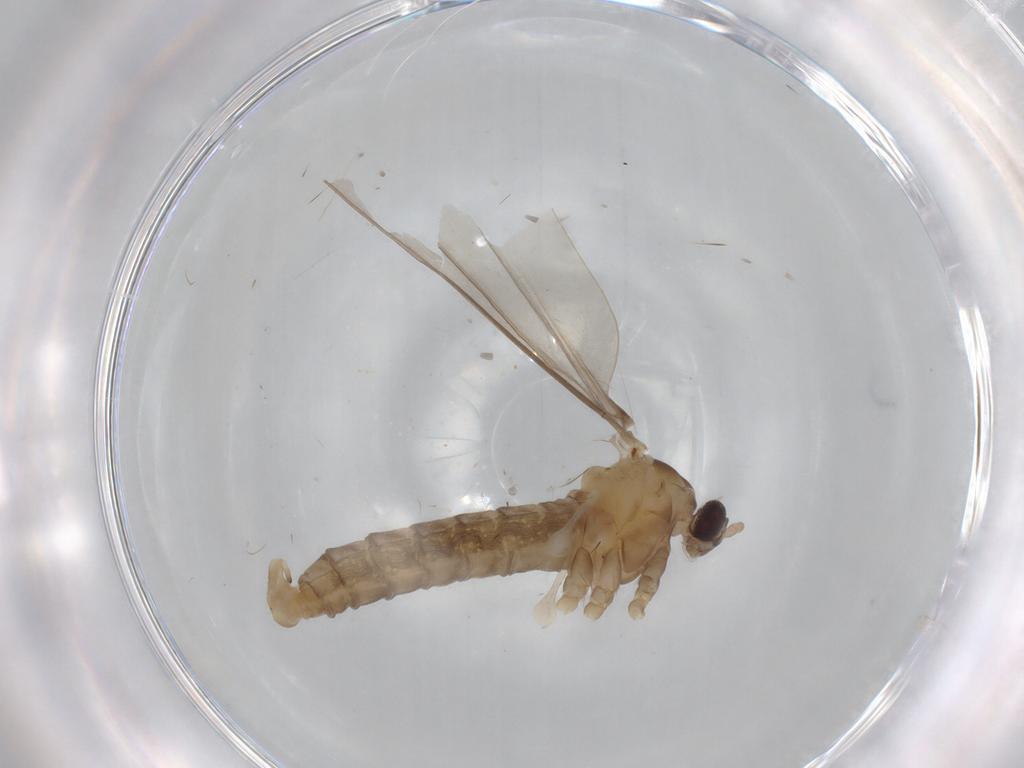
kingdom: Animalia
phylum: Arthropoda
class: Insecta
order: Diptera
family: Cecidomyiidae
